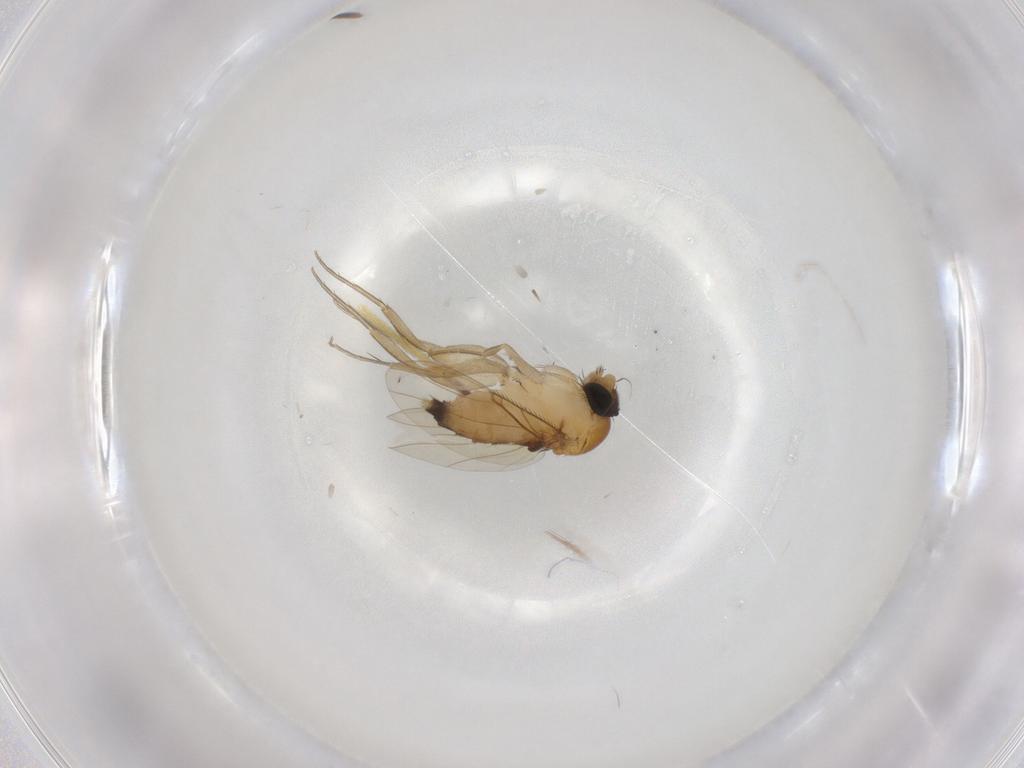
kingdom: Animalia
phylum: Arthropoda
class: Insecta
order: Diptera
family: Phoridae
